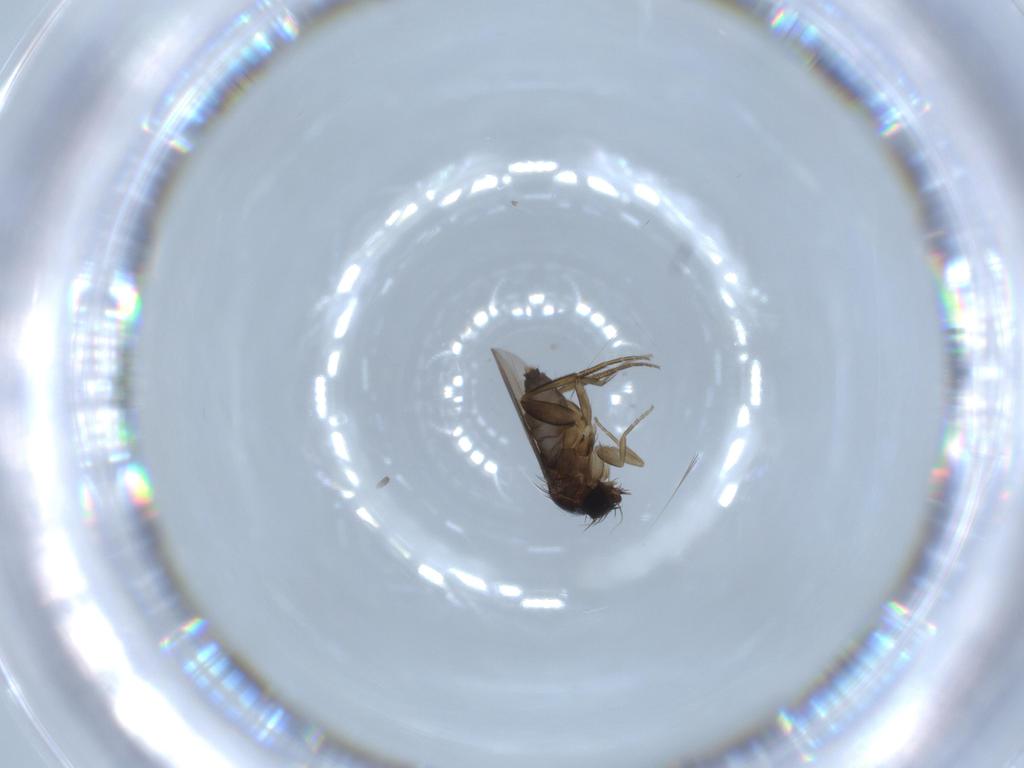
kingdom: Animalia
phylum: Arthropoda
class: Insecta
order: Diptera
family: Phoridae
